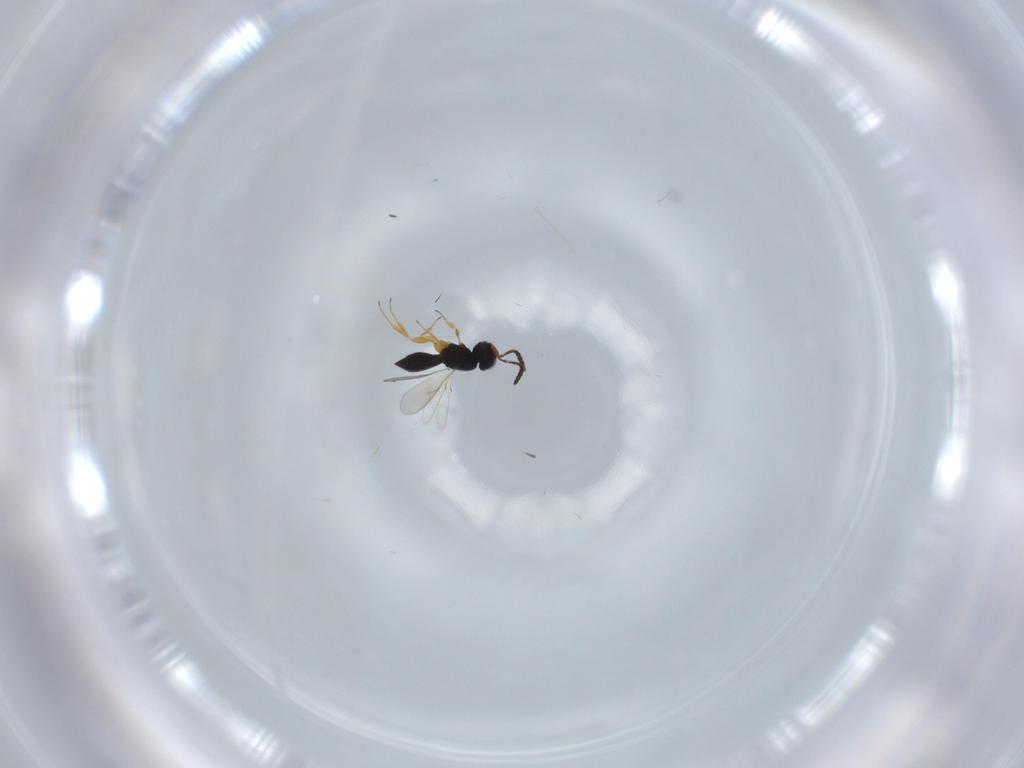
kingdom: Animalia
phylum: Arthropoda
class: Insecta
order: Hymenoptera
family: Scelionidae
